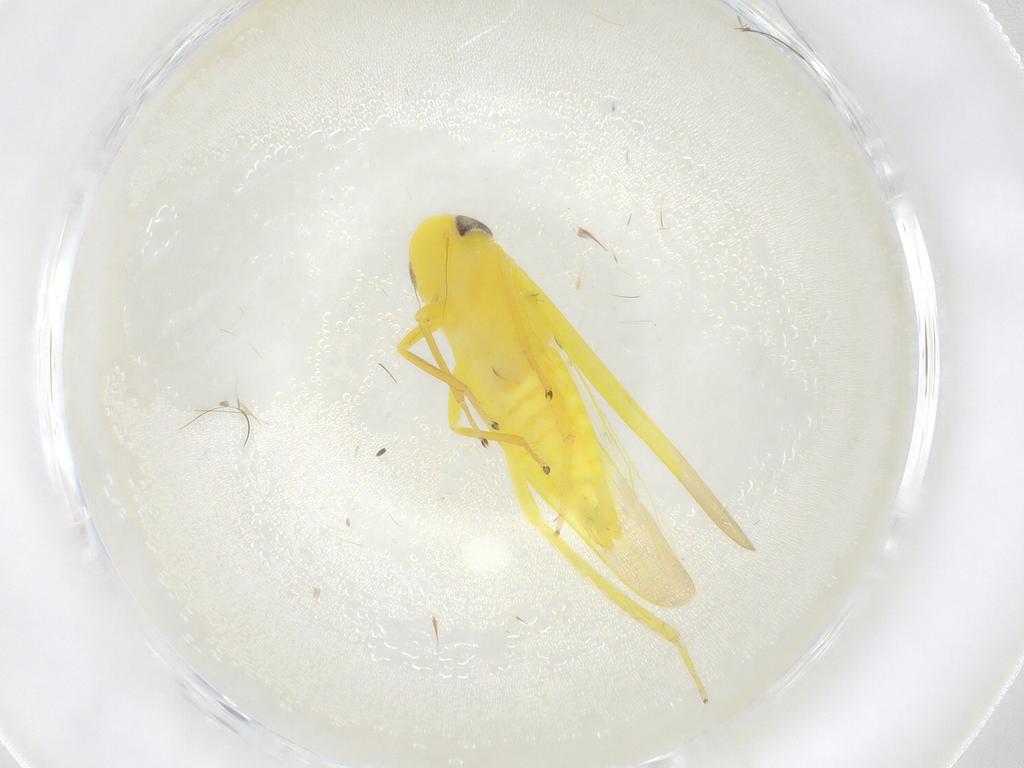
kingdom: Animalia
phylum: Arthropoda
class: Insecta
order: Hemiptera
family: Cicadellidae
